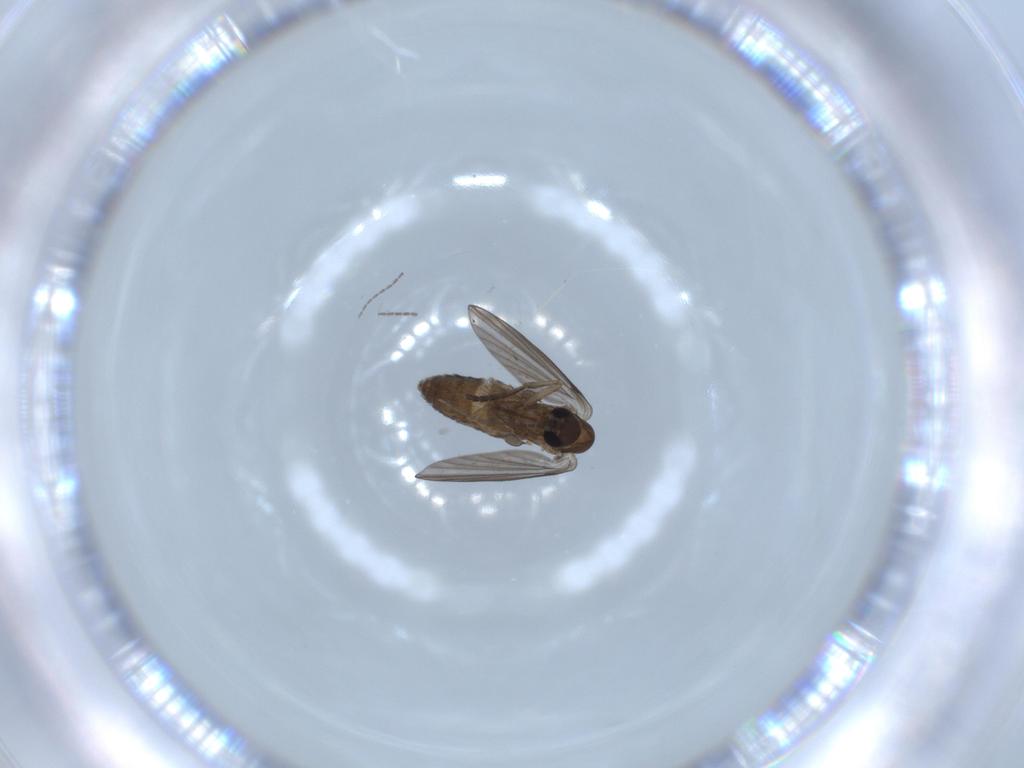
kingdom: Animalia
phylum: Arthropoda
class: Insecta
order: Diptera
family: Psychodidae
